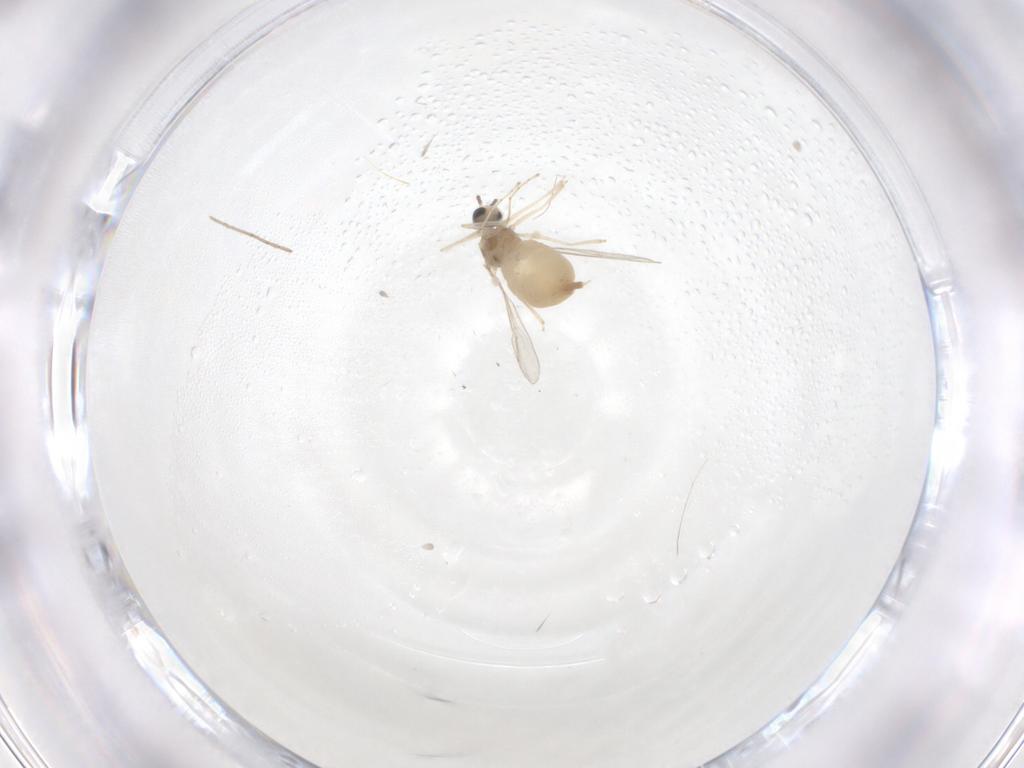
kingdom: Animalia
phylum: Arthropoda
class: Insecta
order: Diptera
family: Cecidomyiidae
